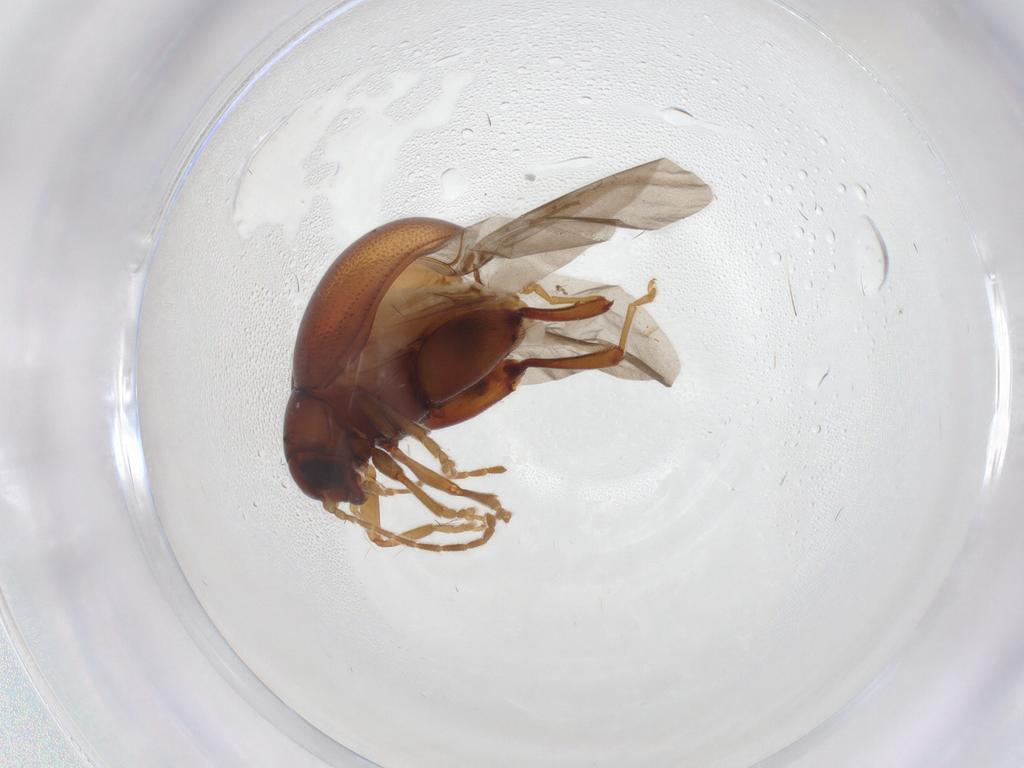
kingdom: Animalia
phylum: Arthropoda
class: Insecta
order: Coleoptera
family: Chrysomelidae
